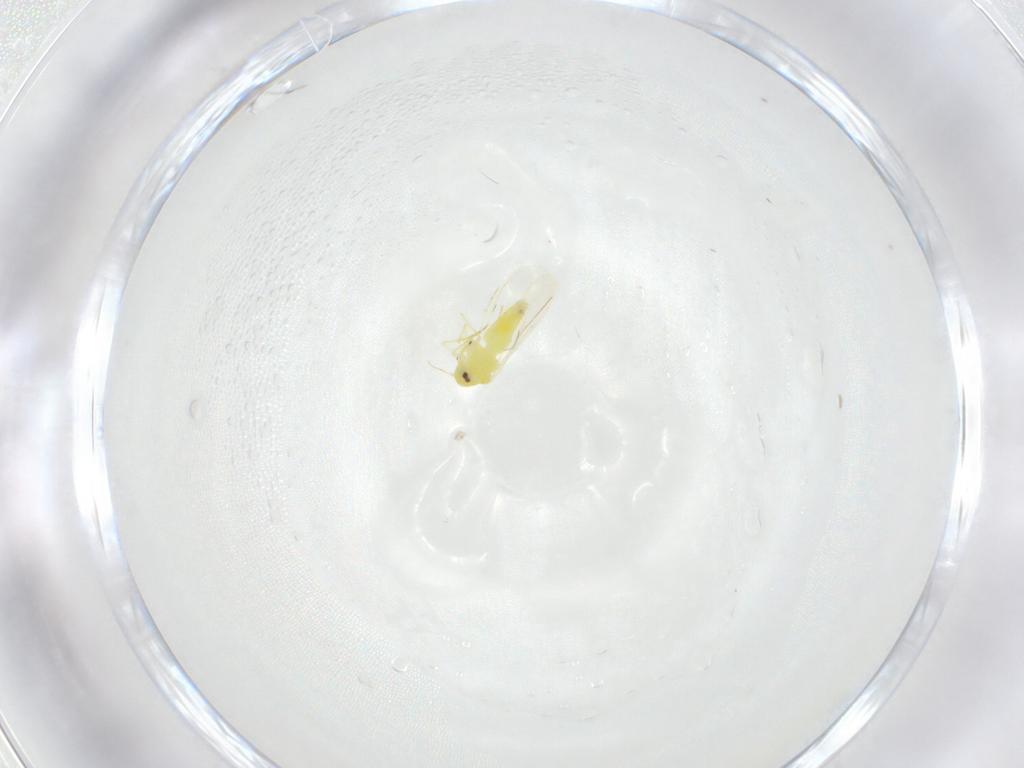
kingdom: Animalia
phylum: Arthropoda
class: Insecta
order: Hemiptera
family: Aleyrodidae
